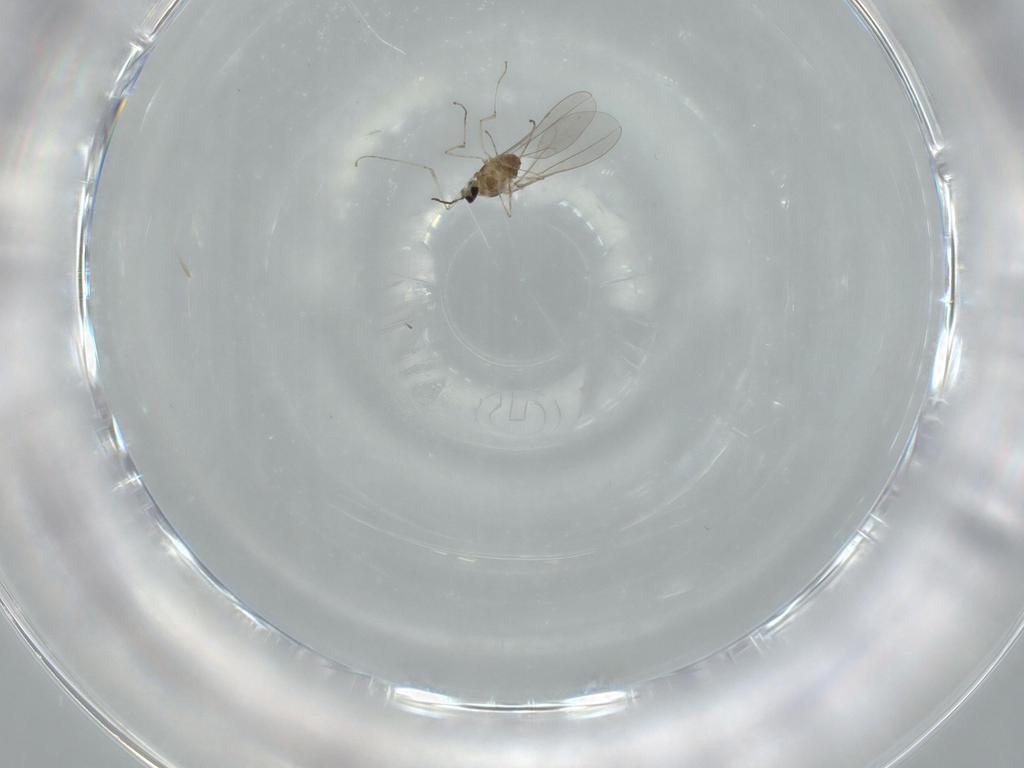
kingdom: Animalia
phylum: Arthropoda
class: Insecta
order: Diptera
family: Cecidomyiidae
